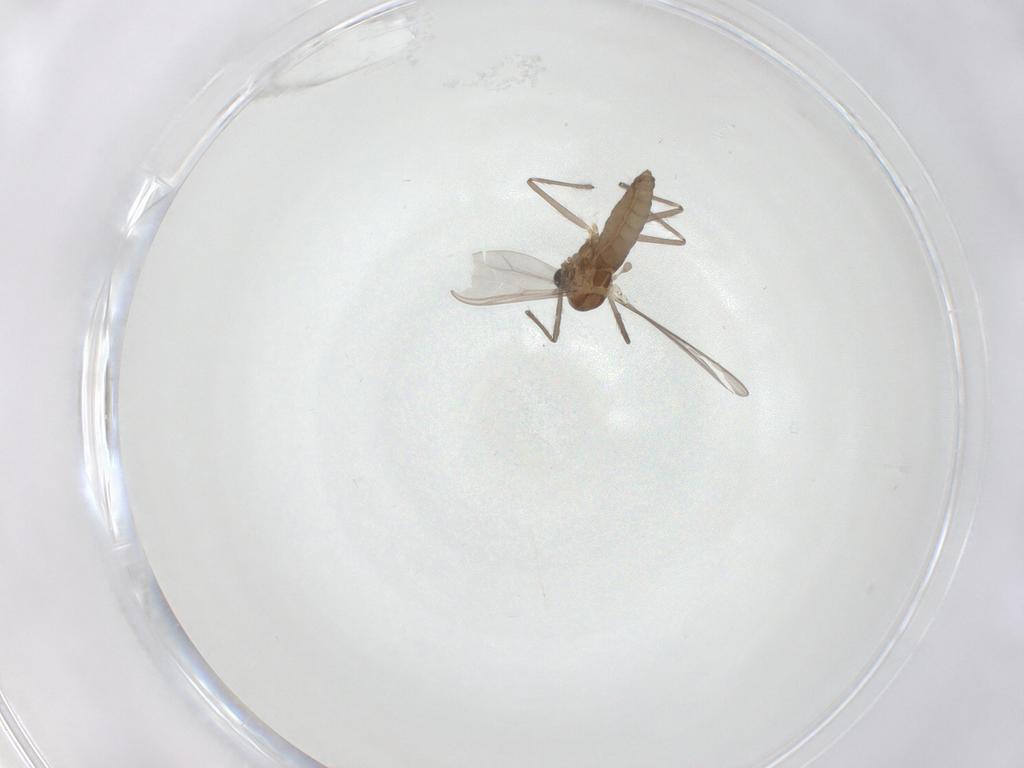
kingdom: Animalia
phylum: Arthropoda
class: Insecta
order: Diptera
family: Chironomidae
